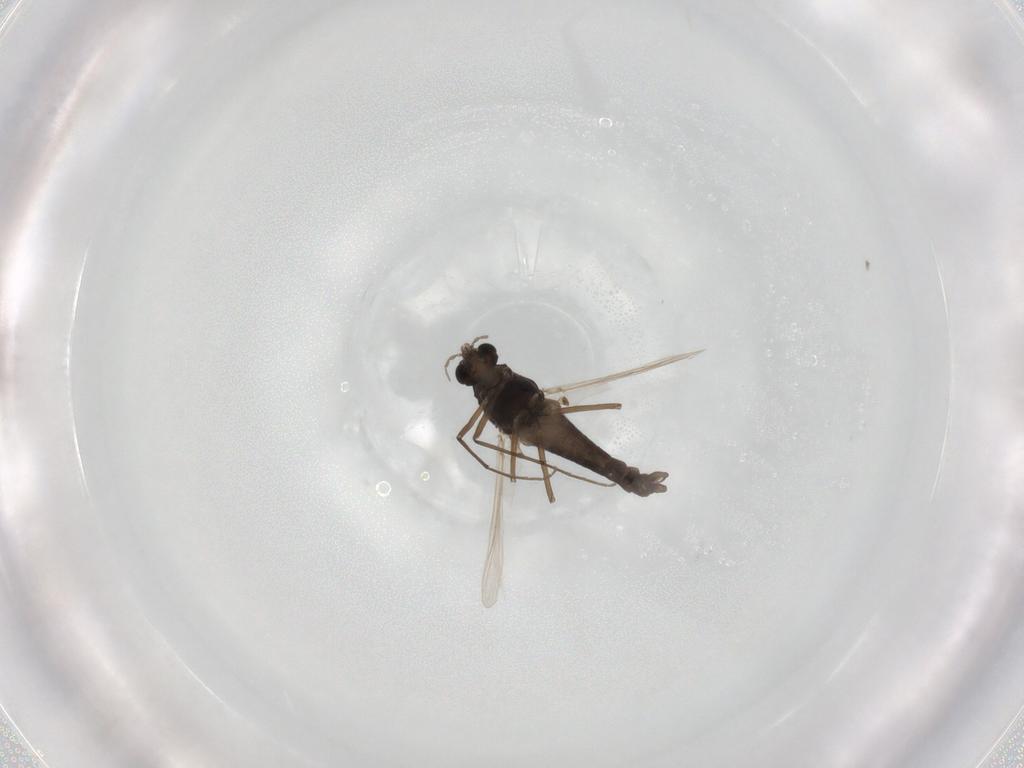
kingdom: Animalia
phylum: Arthropoda
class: Insecta
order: Diptera
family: Chironomidae
